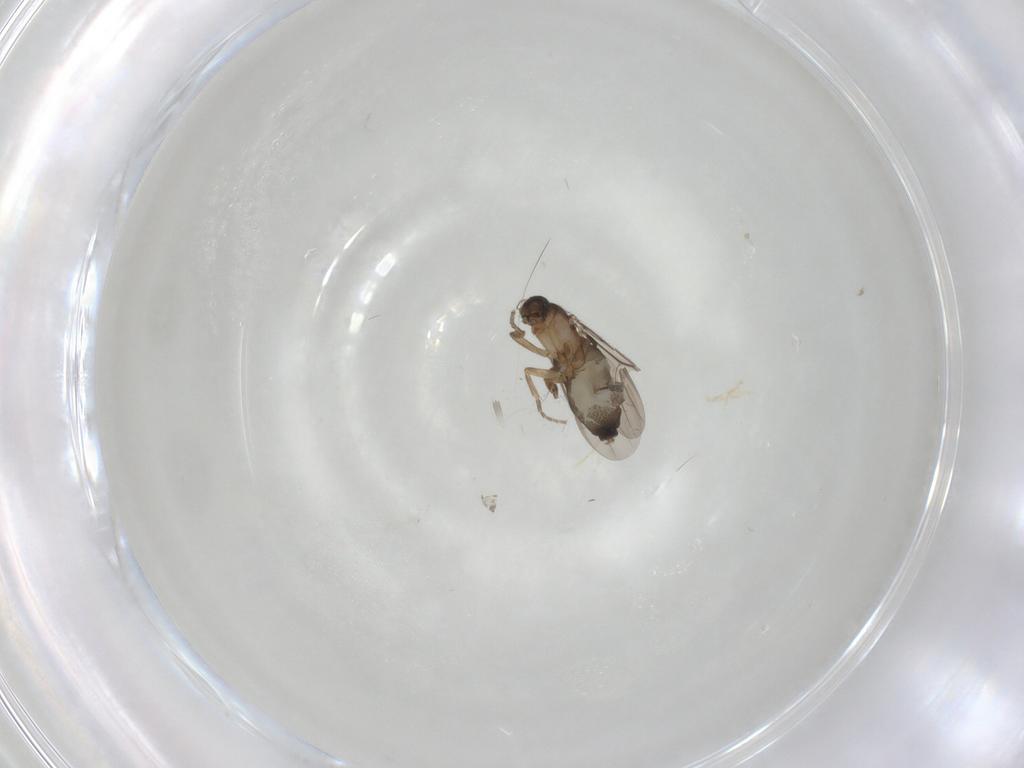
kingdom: Animalia
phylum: Arthropoda
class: Insecta
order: Diptera
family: Phoridae
